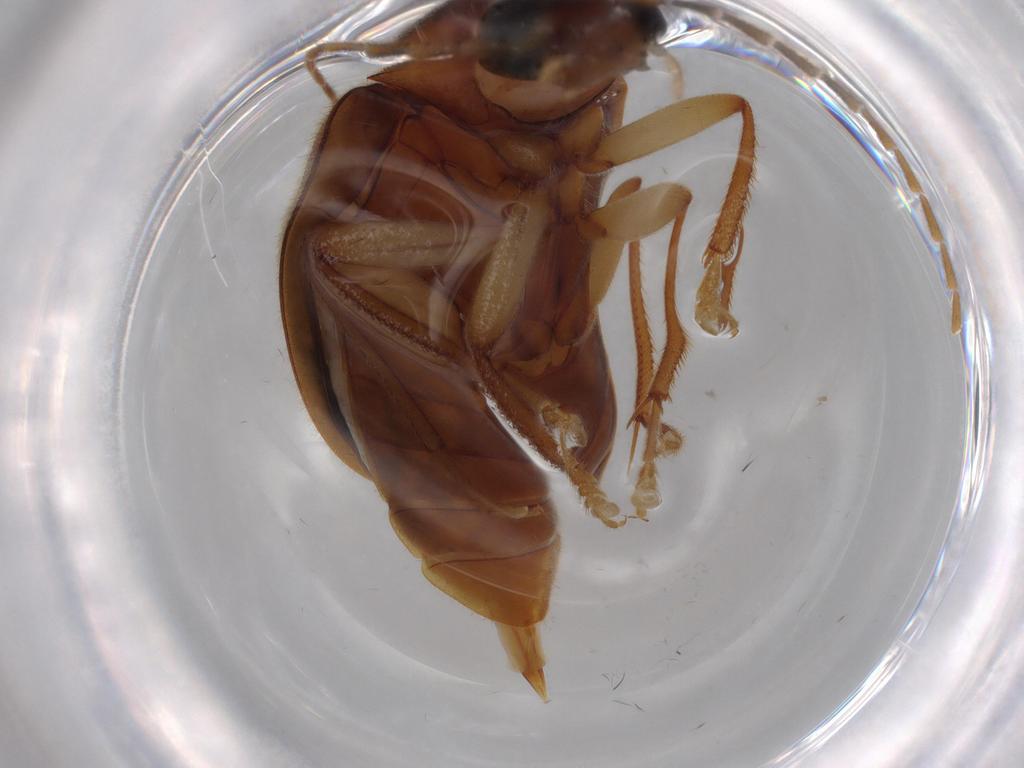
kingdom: Animalia
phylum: Arthropoda
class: Insecta
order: Coleoptera
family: Ptilodactylidae
